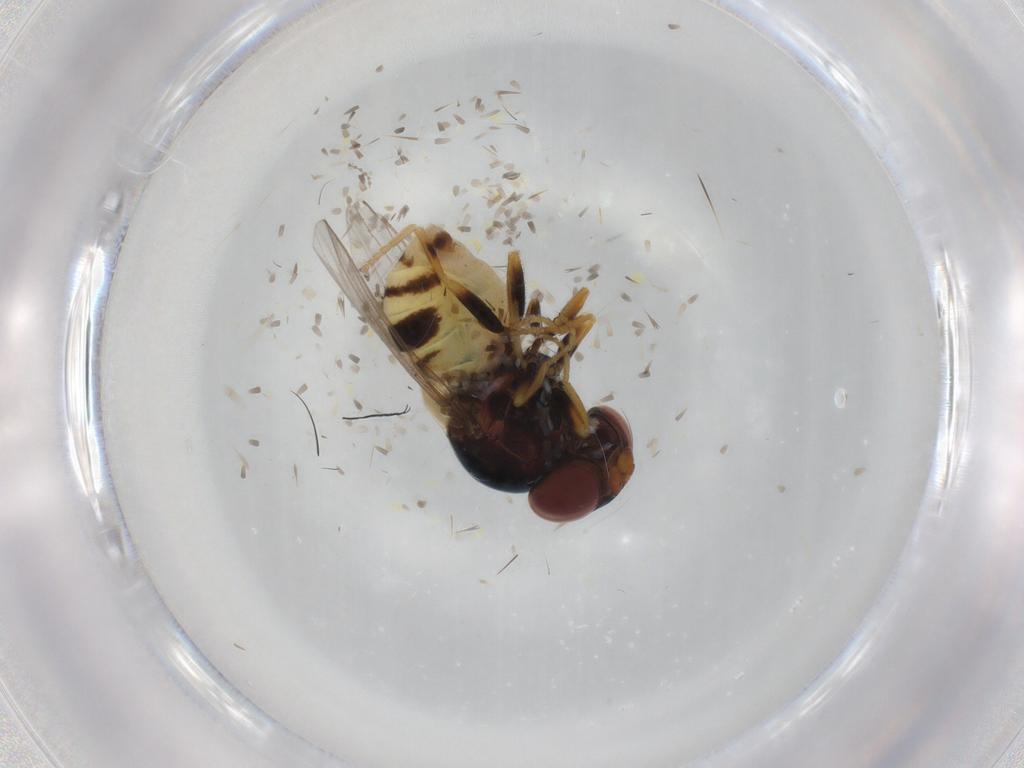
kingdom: Animalia
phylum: Arthropoda
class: Insecta
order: Diptera
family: Chloropidae
